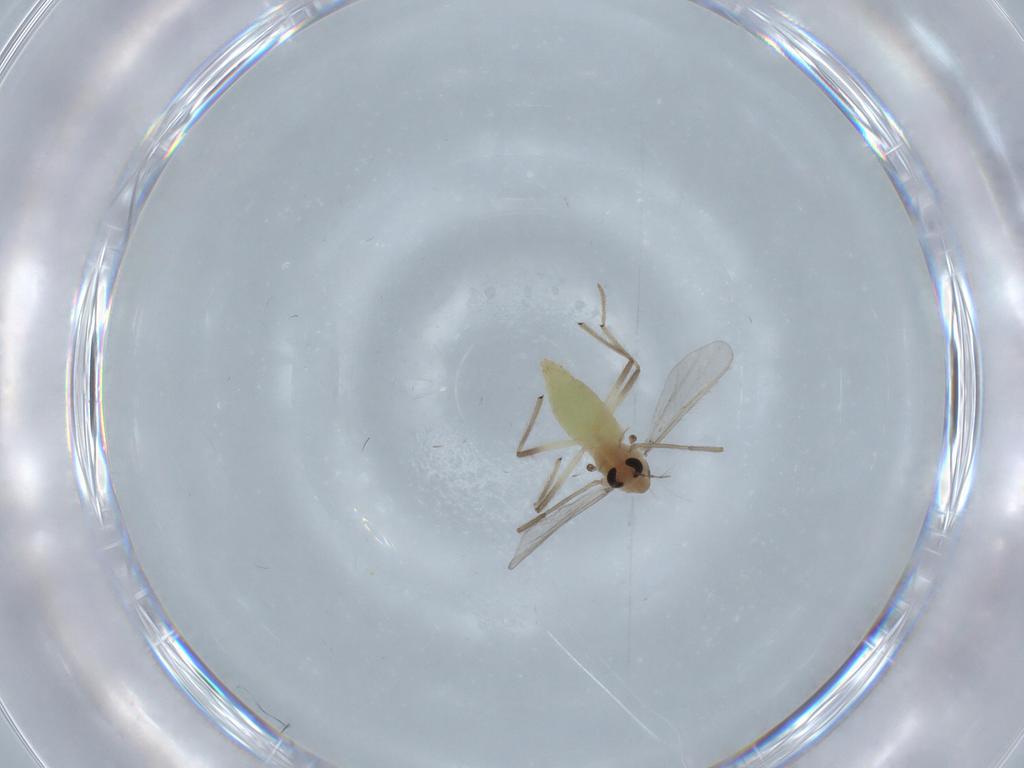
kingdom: Animalia
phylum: Arthropoda
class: Insecta
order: Diptera
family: Chironomidae
